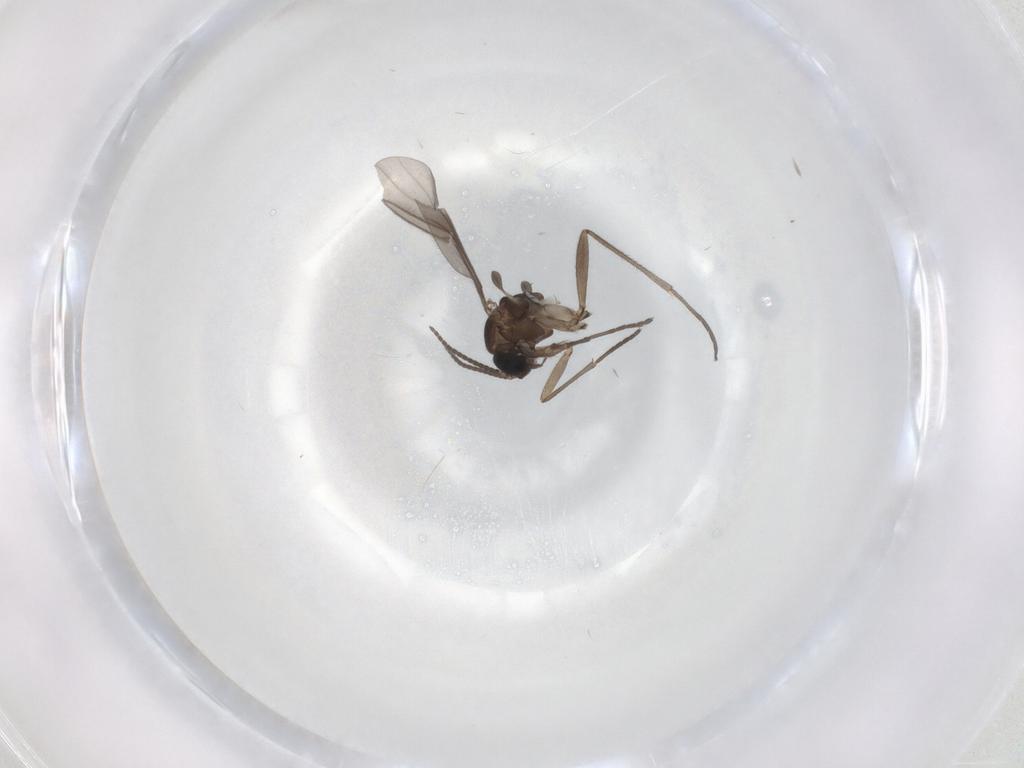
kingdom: Animalia
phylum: Arthropoda
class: Insecta
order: Diptera
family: Sciaridae
